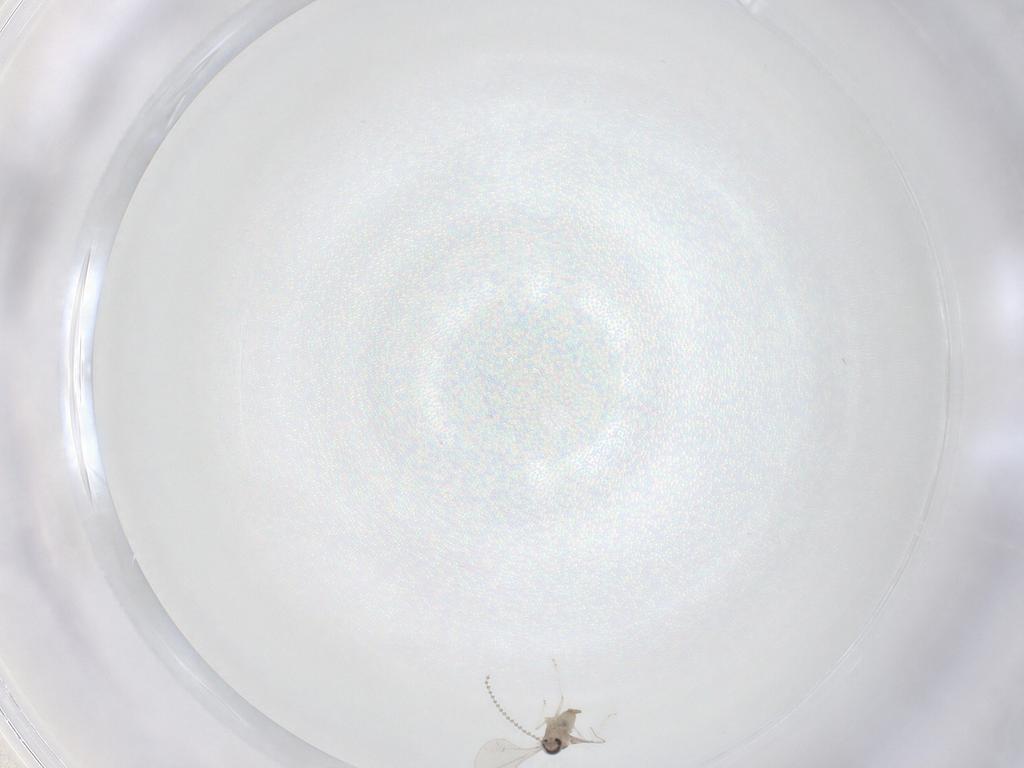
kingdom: Animalia
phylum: Arthropoda
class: Insecta
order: Diptera
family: Cecidomyiidae
